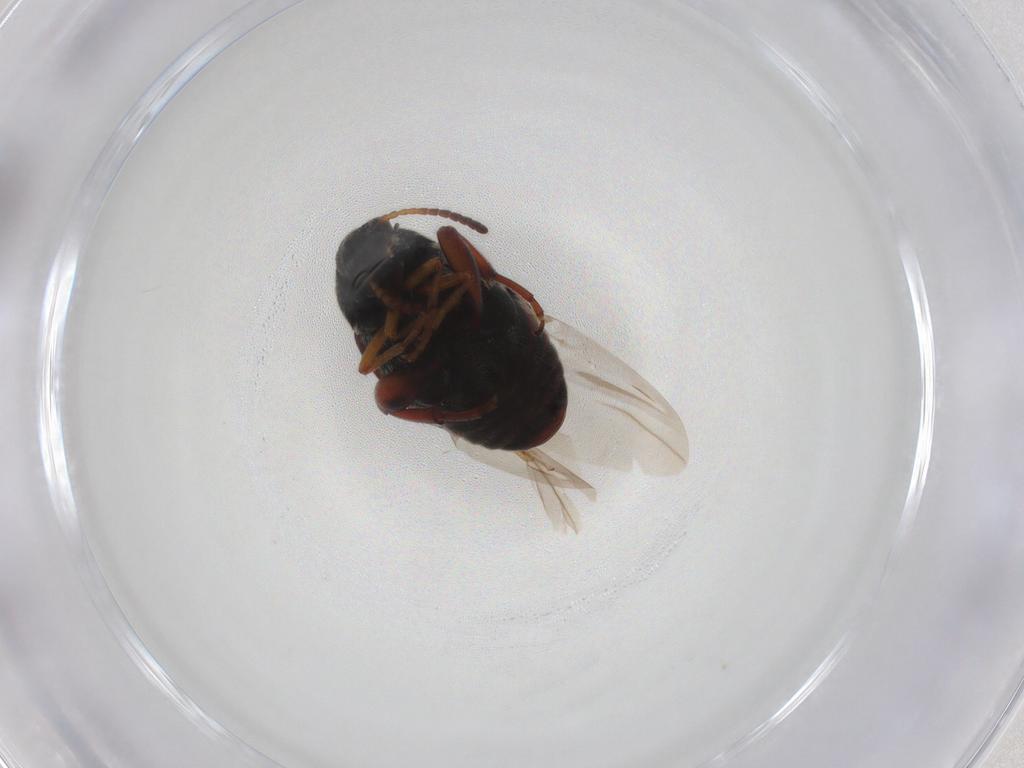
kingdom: Animalia
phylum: Arthropoda
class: Insecta
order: Coleoptera
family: Chrysomelidae
